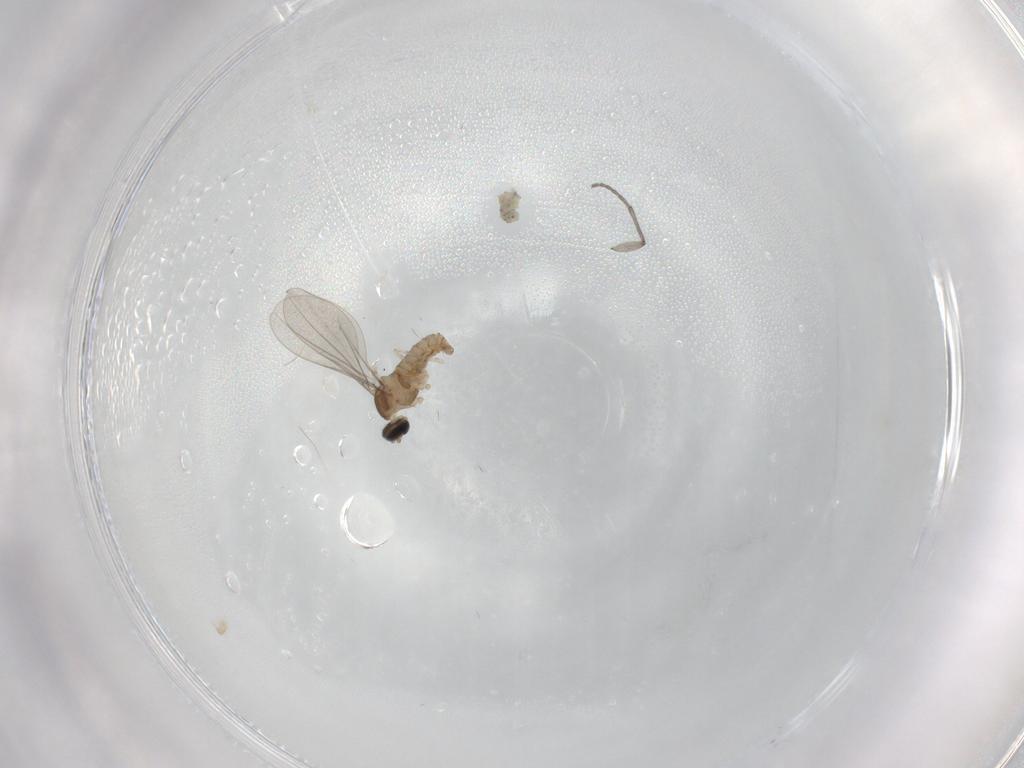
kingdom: Animalia
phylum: Arthropoda
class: Insecta
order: Diptera
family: Cecidomyiidae
